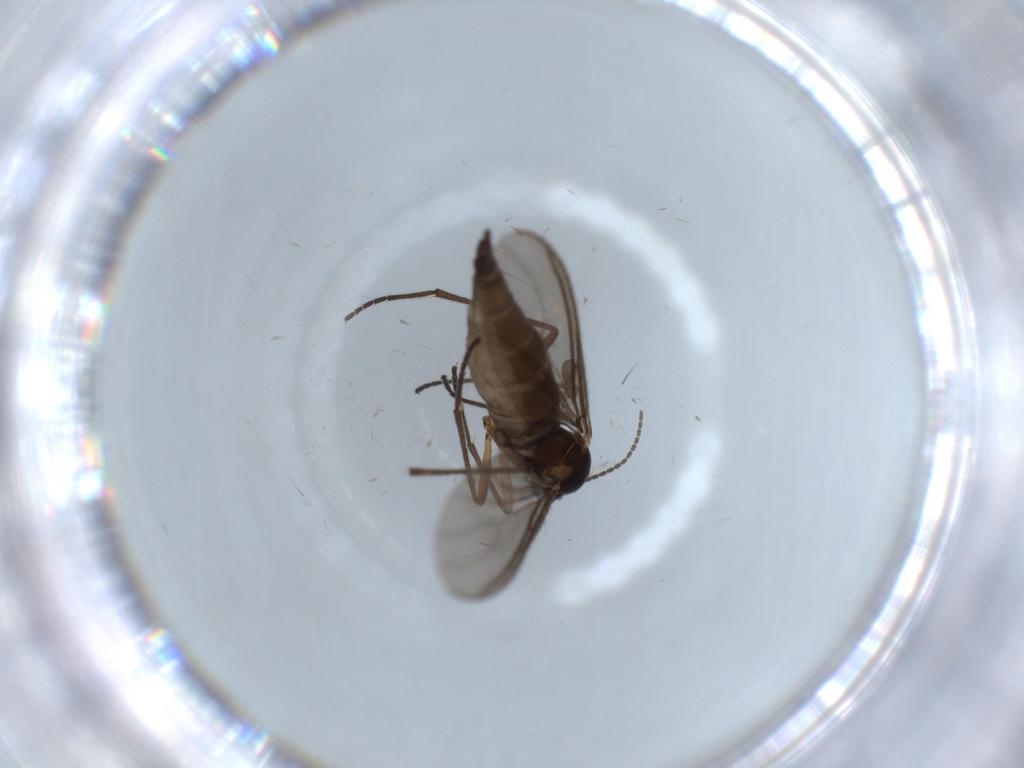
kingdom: Animalia
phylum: Arthropoda
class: Insecta
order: Diptera
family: Sciaridae
